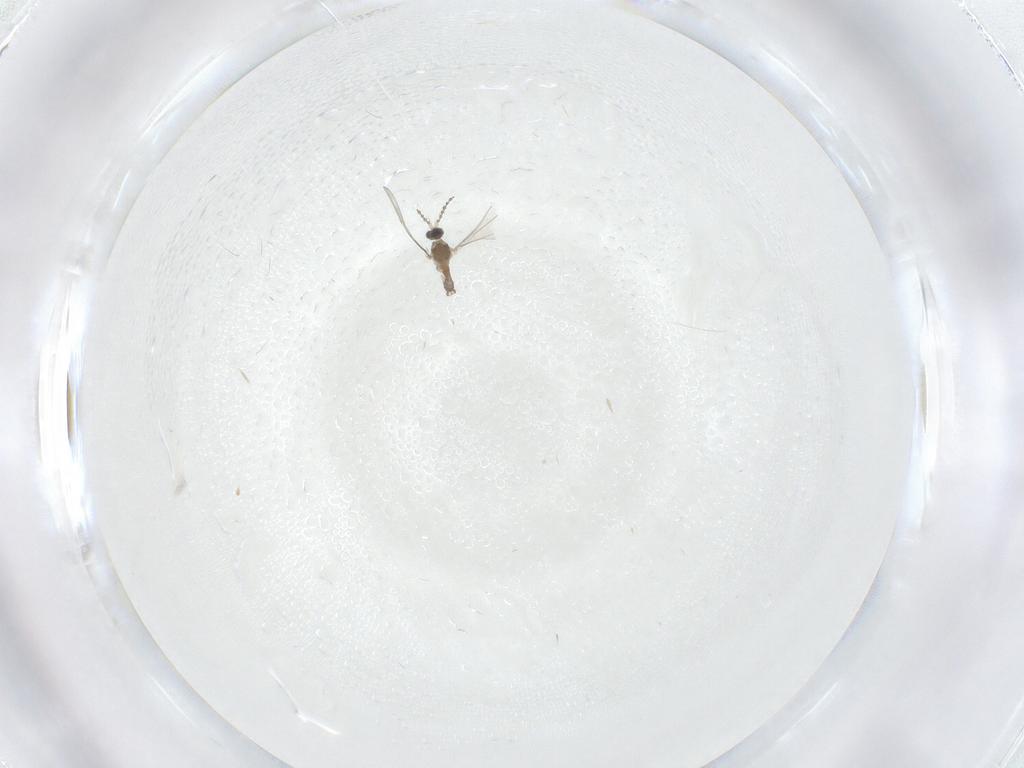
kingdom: Animalia
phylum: Arthropoda
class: Insecta
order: Diptera
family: Cecidomyiidae
